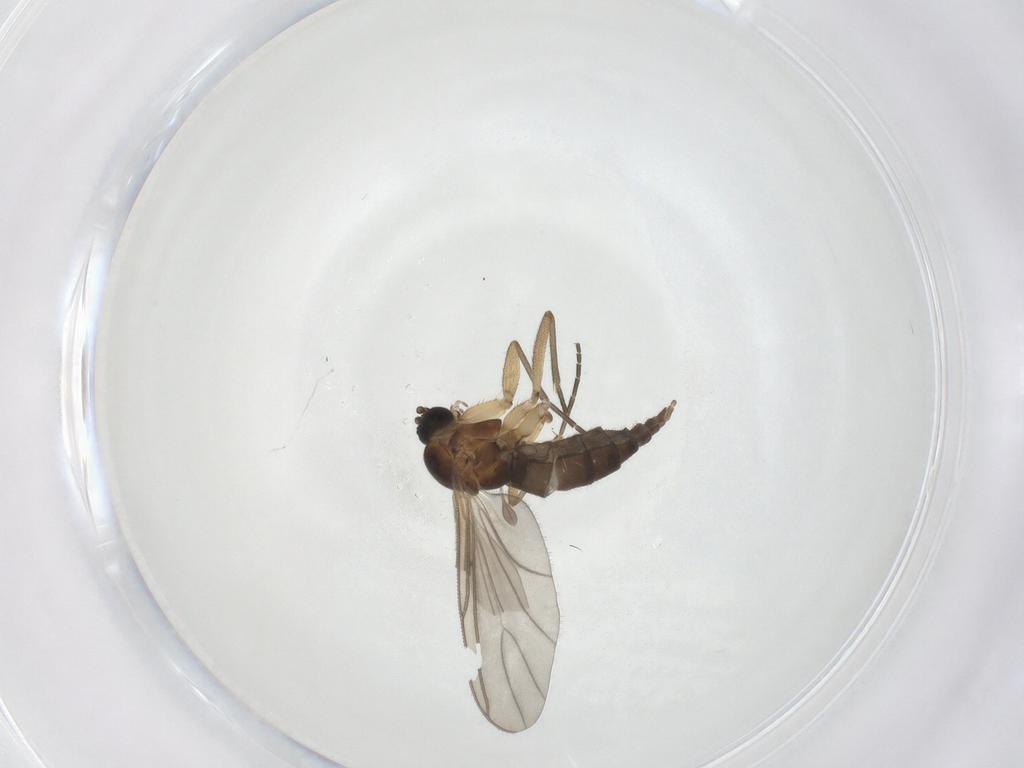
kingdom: Animalia
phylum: Arthropoda
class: Insecta
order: Diptera
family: Sciaridae
